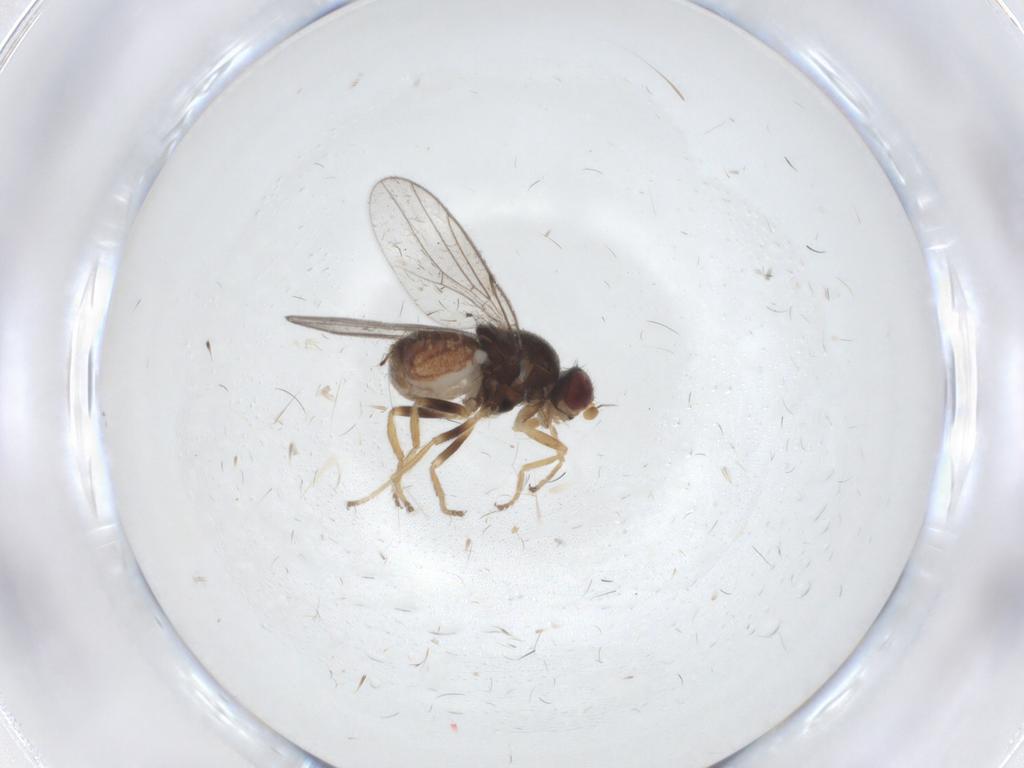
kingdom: Animalia
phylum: Arthropoda
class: Insecta
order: Diptera
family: Chloropidae
